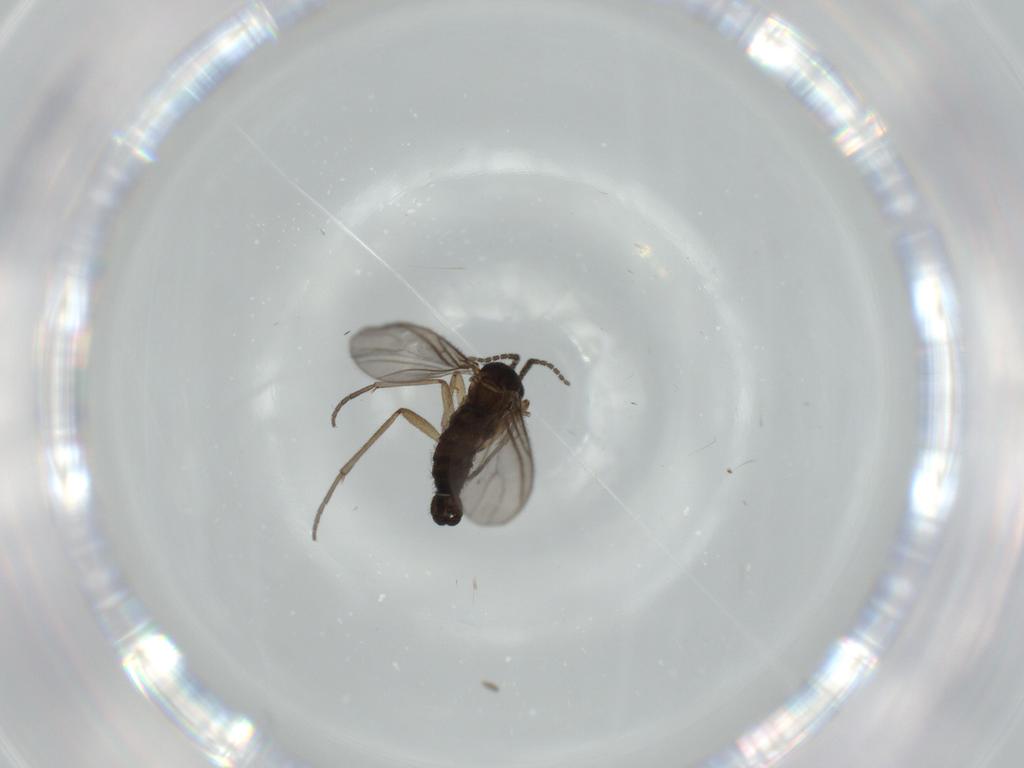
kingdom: Animalia
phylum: Arthropoda
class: Insecta
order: Diptera
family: Sciaridae
